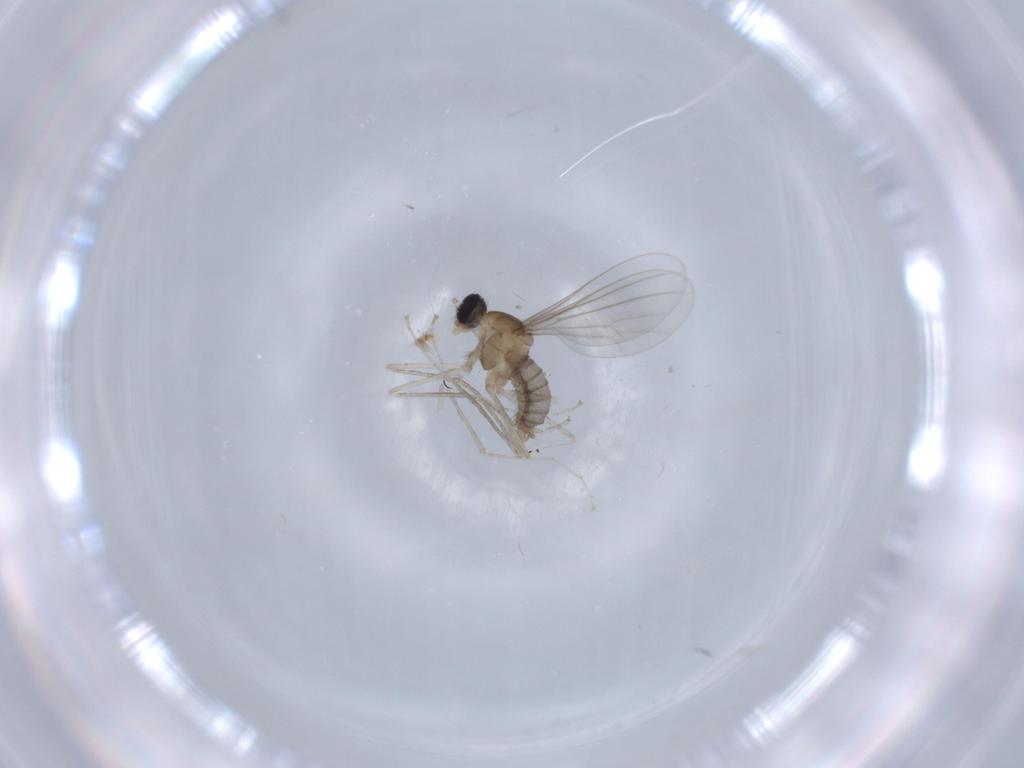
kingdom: Animalia
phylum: Arthropoda
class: Insecta
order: Diptera
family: Cecidomyiidae
